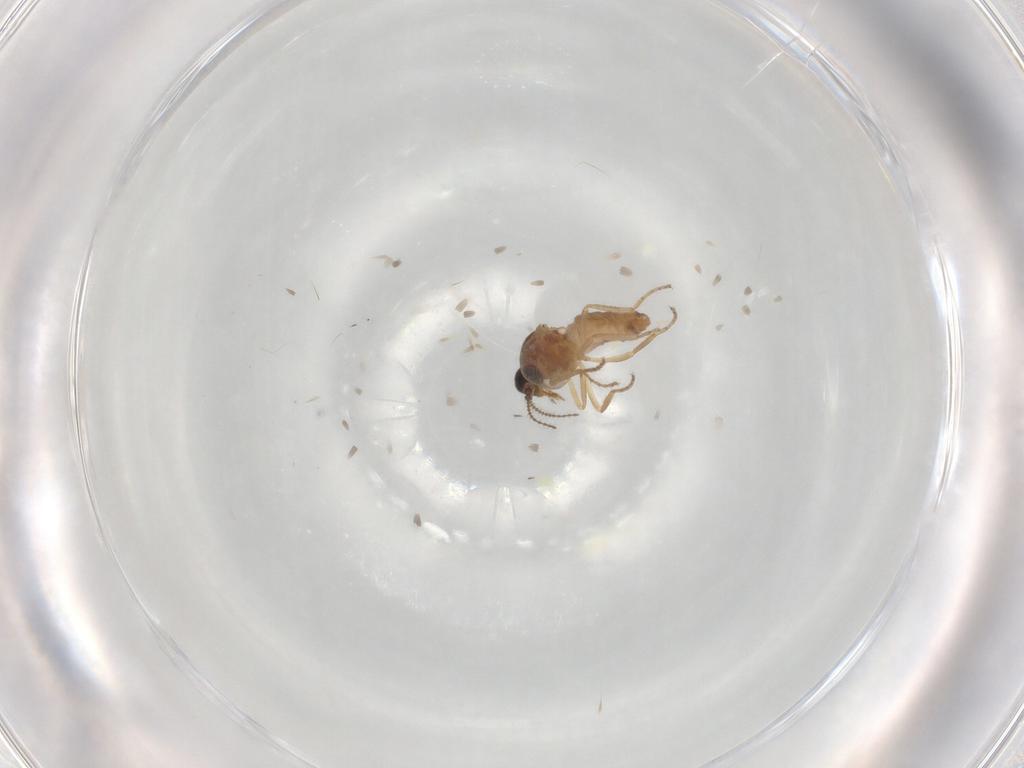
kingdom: Animalia
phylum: Arthropoda
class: Insecta
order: Diptera
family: Ceratopogonidae
